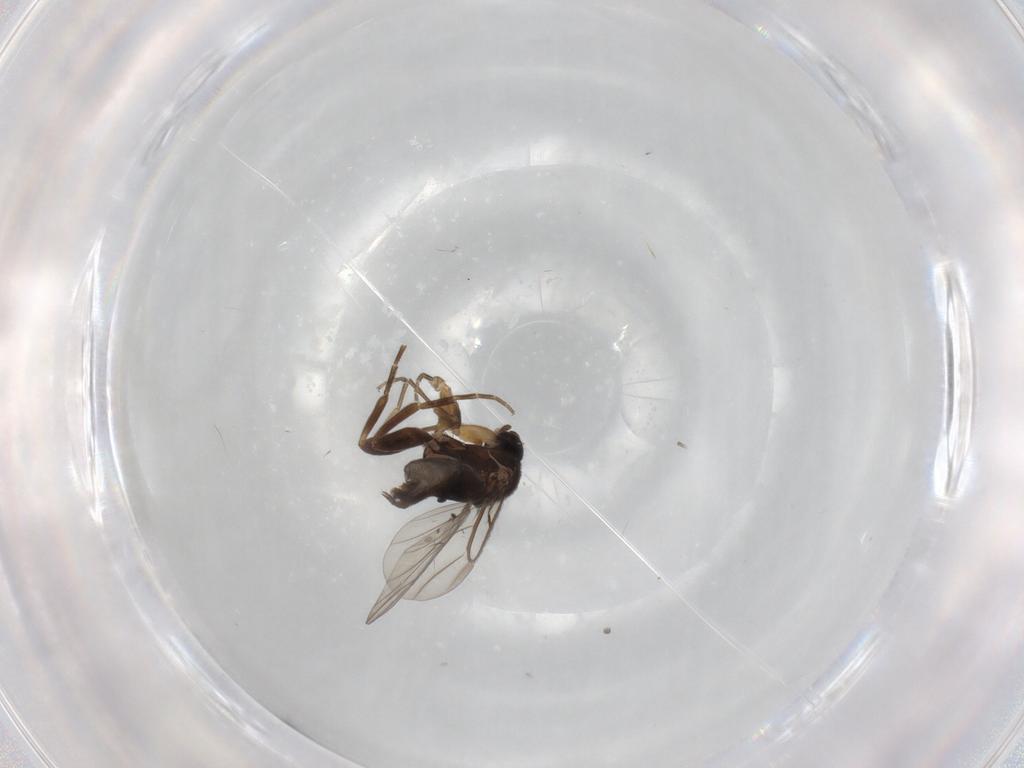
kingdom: Animalia
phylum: Arthropoda
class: Insecta
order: Diptera
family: Phoridae
